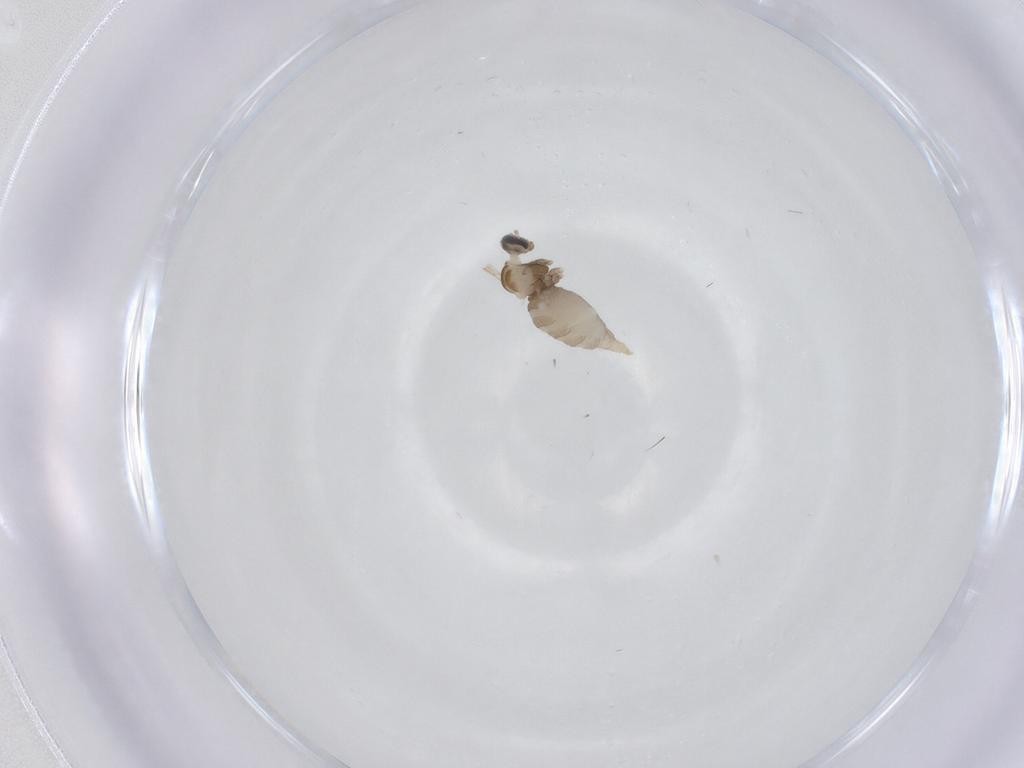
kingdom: Animalia
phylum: Arthropoda
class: Insecta
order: Diptera
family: Cecidomyiidae
